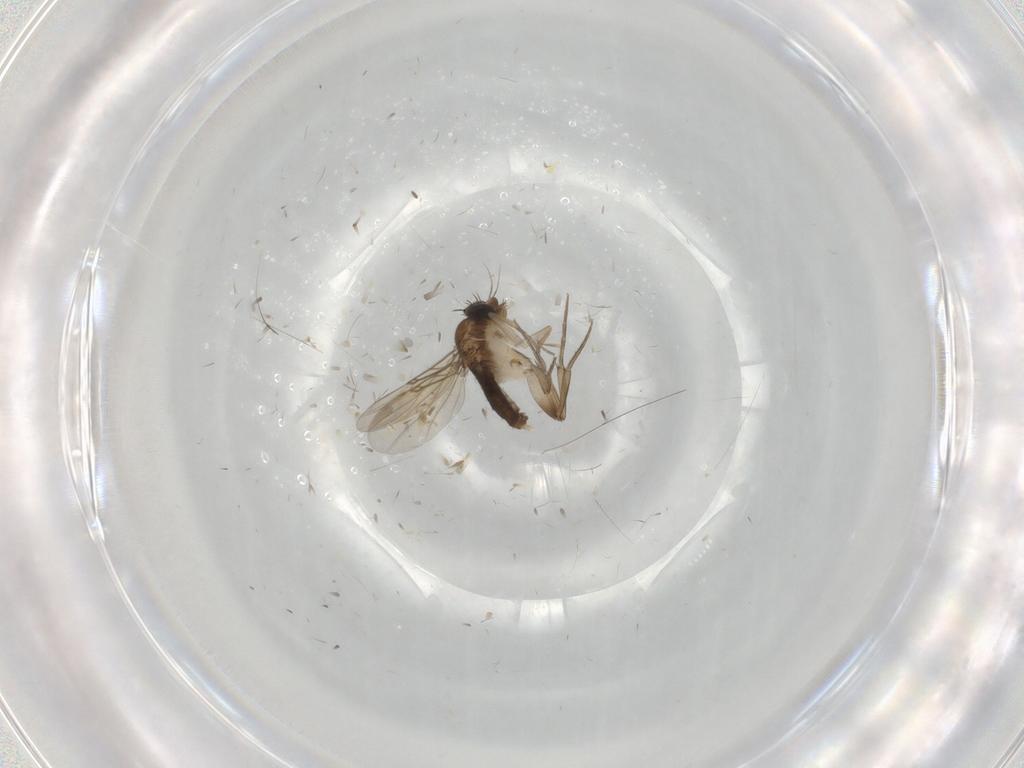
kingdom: Animalia
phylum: Arthropoda
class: Insecta
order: Diptera
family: Phoridae
